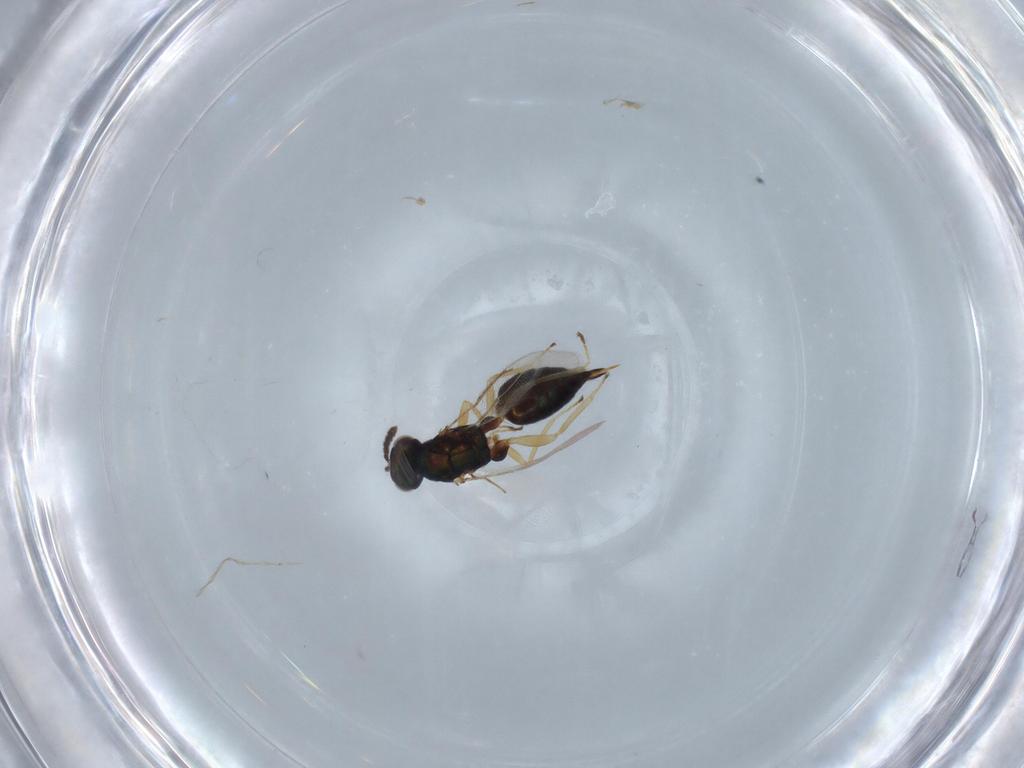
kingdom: Animalia
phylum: Arthropoda
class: Insecta
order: Hymenoptera
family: Eulophidae
